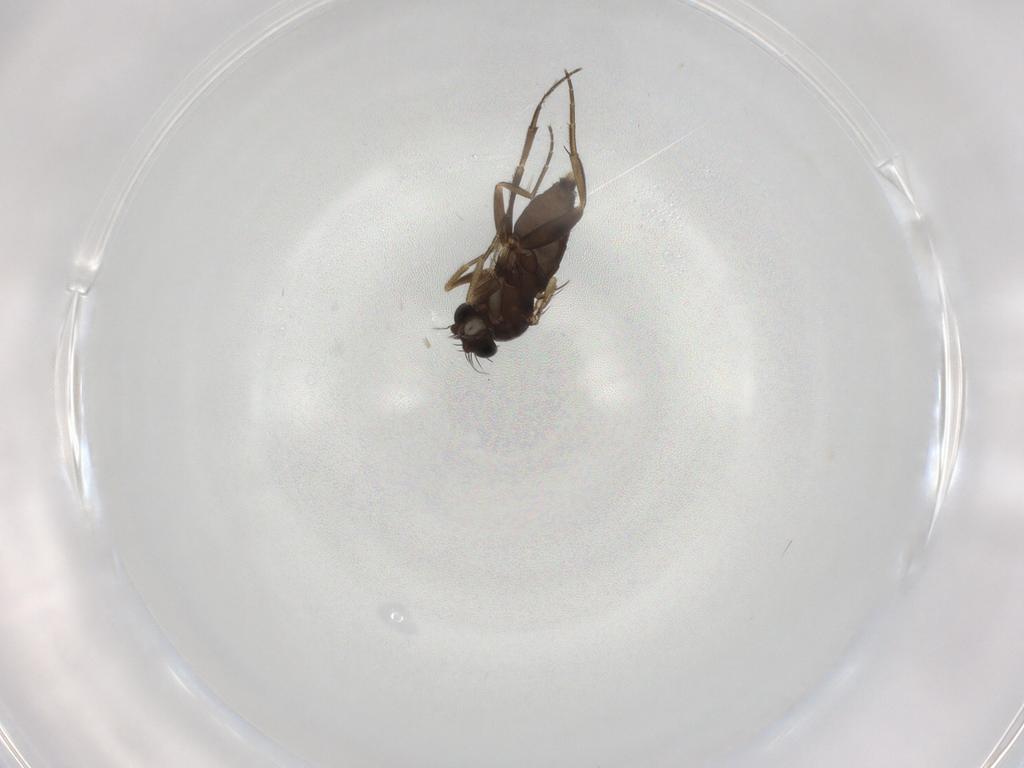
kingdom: Animalia
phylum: Arthropoda
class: Insecta
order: Diptera
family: Phoridae
